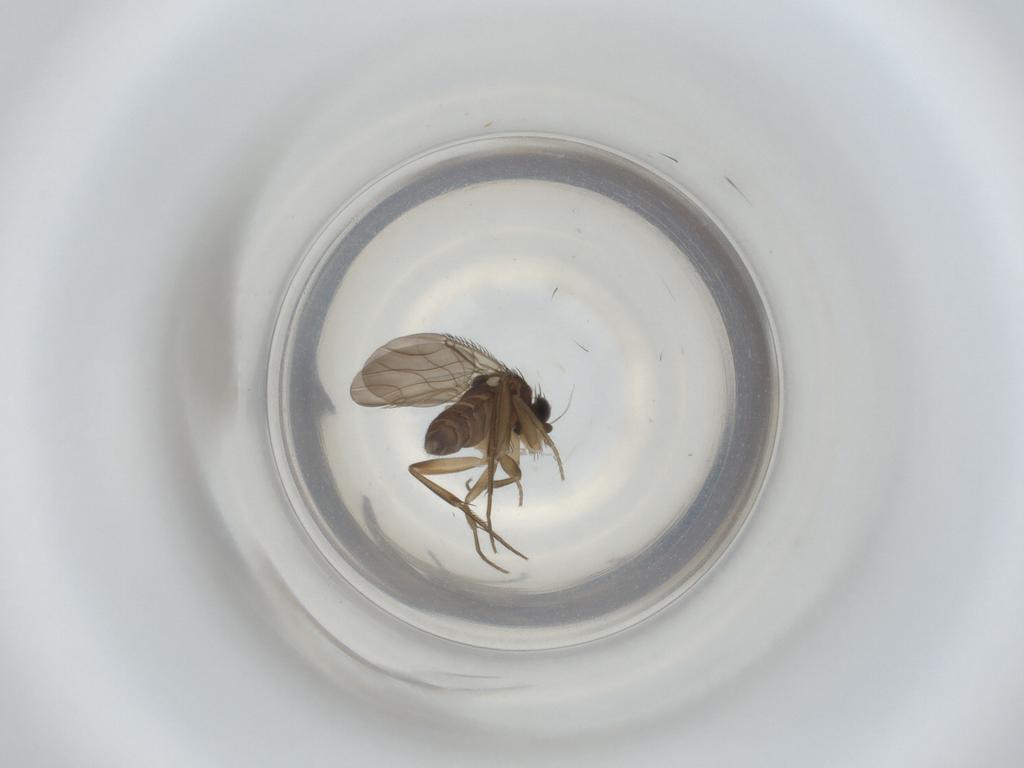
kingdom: Animalia
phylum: Arthropoda
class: Insecta
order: Diptera
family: Phoridae
